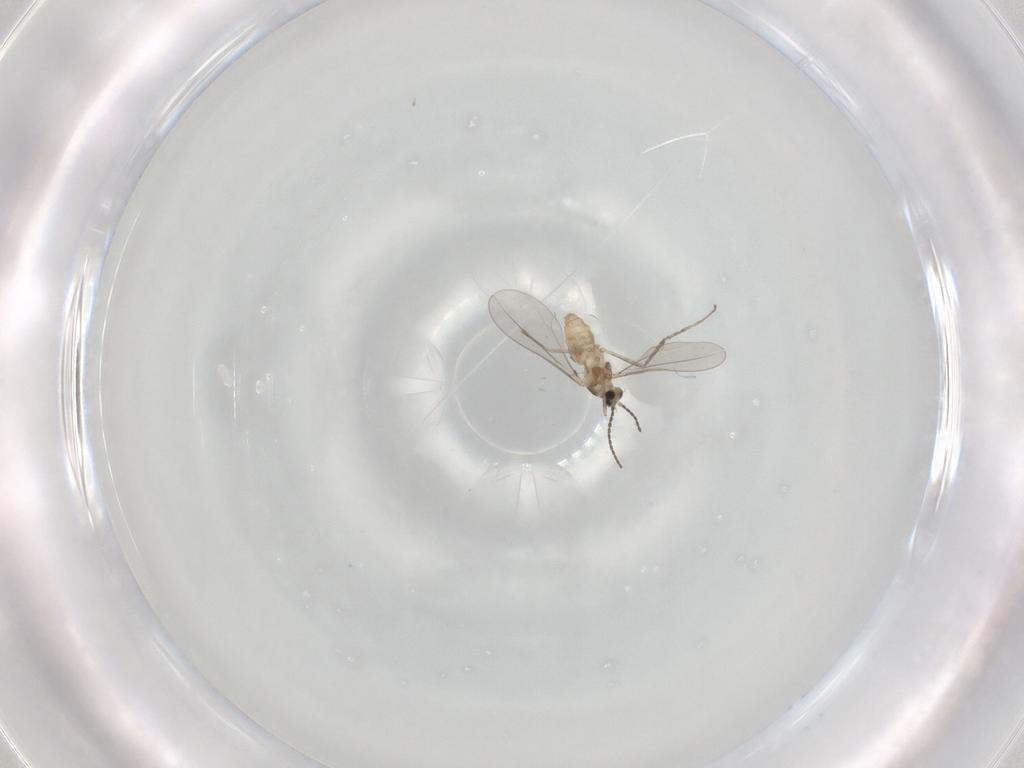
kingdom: Animalia
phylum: Arthropoda
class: Insecta
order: Diptera
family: Cecidomyiidae
